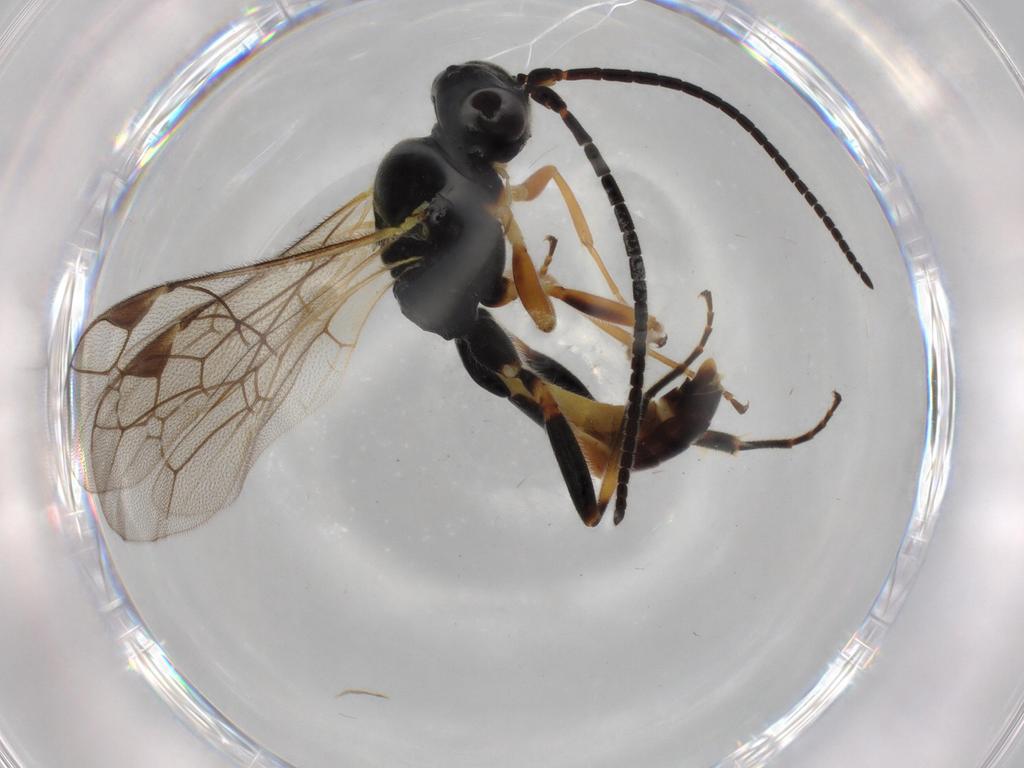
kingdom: Animalia
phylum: Arthropoda
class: Insecta
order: Hymenoptera
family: Ichneumonidae
